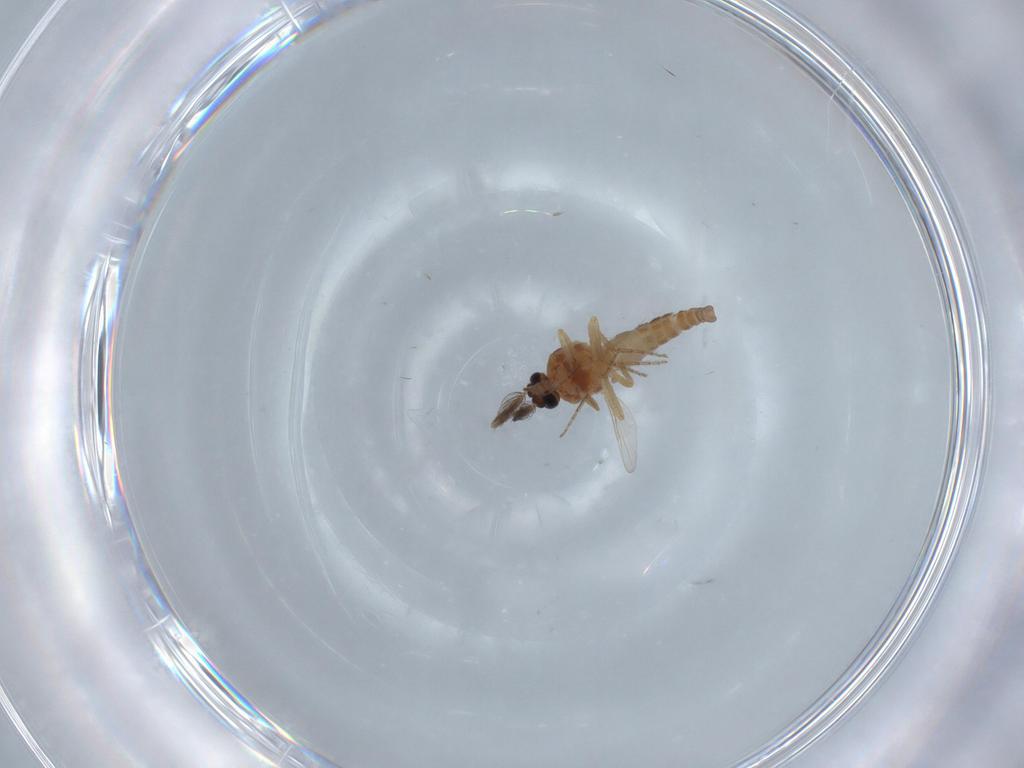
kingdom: Animalia
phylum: Arthropoda
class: Insecta
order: Diptera
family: Ceratopogonidae
